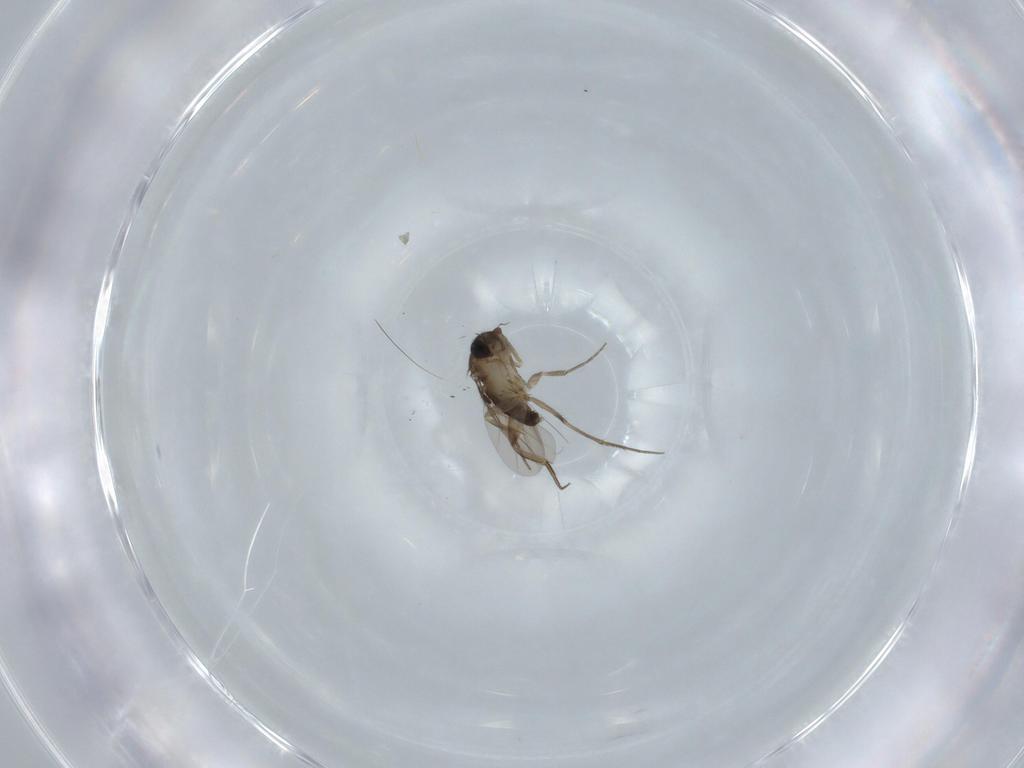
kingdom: Animalia
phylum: Arthropoda
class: Insecta
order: Diptera
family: Phoridae
